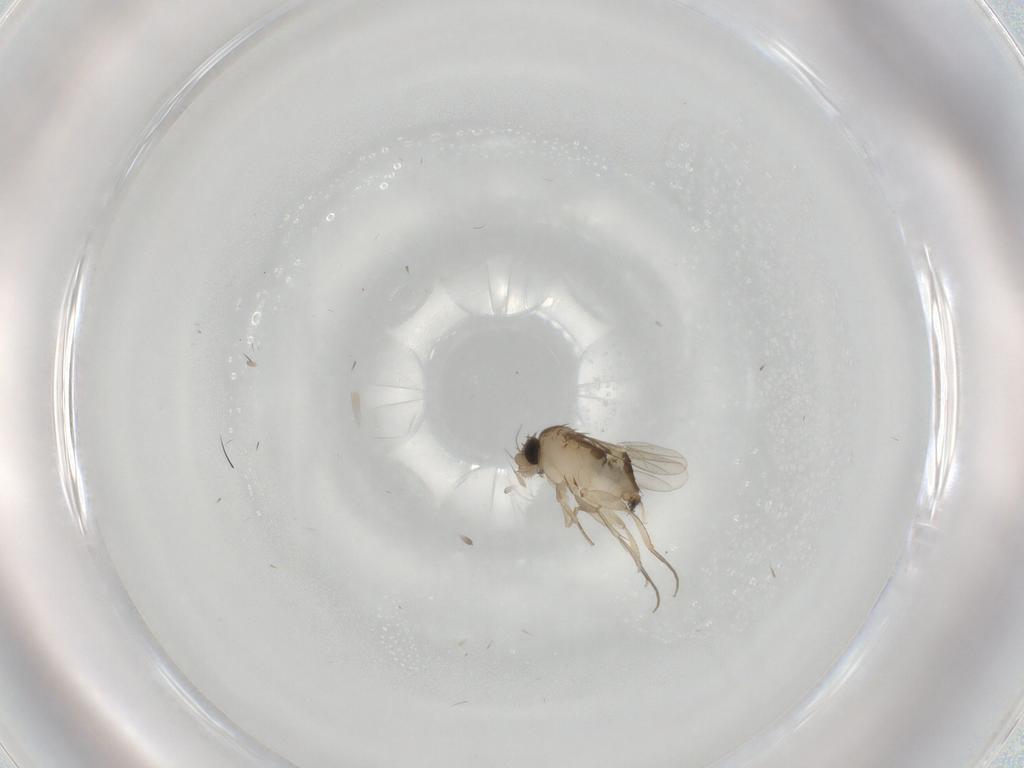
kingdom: Animalia
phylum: Arthropoda
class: Insecta
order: Diptera
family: Phoridae
